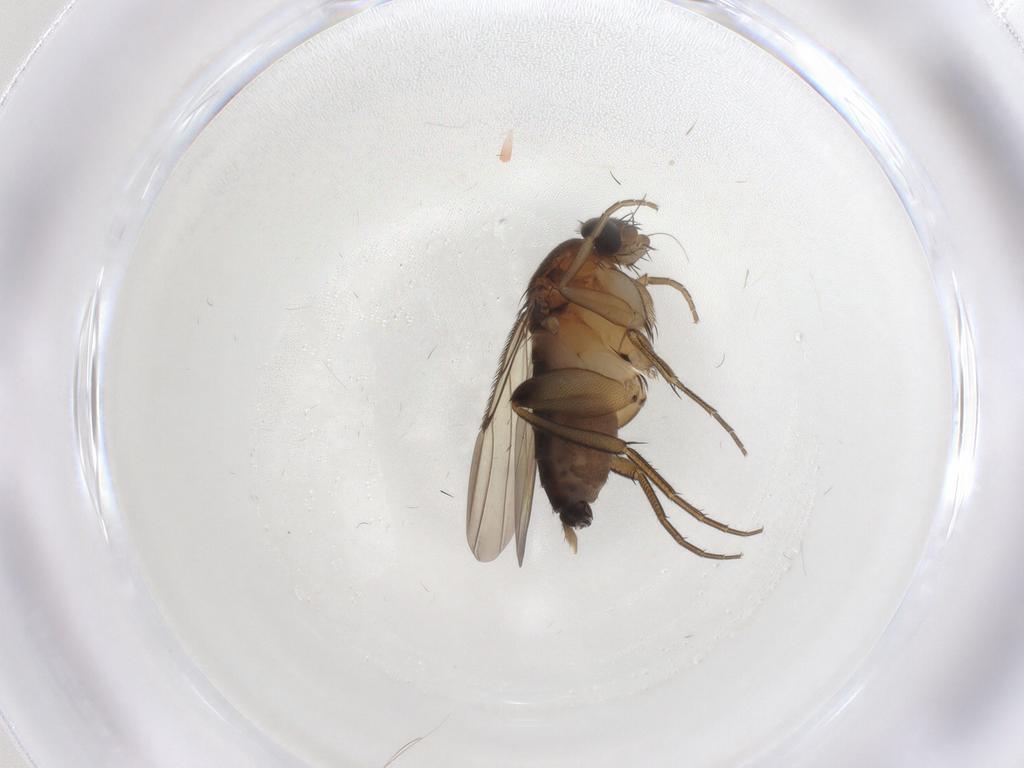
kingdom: Animalia
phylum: Arthropoda
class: Insecta
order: Diptera
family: Phoridae
